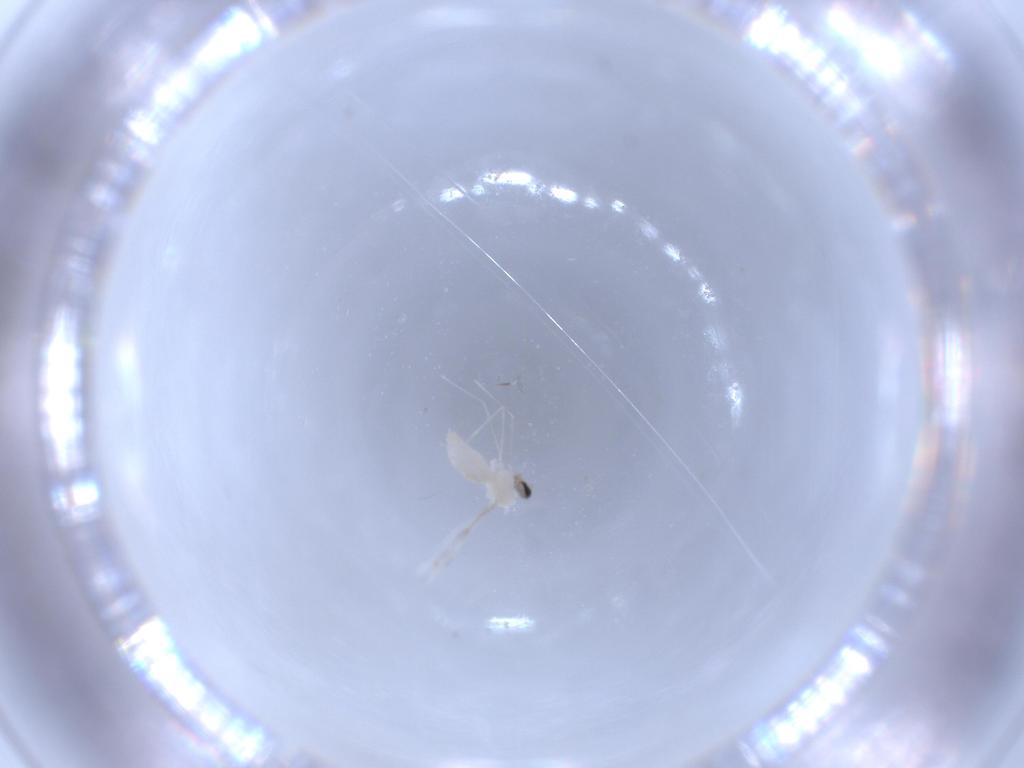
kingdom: Animalia
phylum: Arthropoda
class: Insecta
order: Diptera
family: Cecidomyiidae
